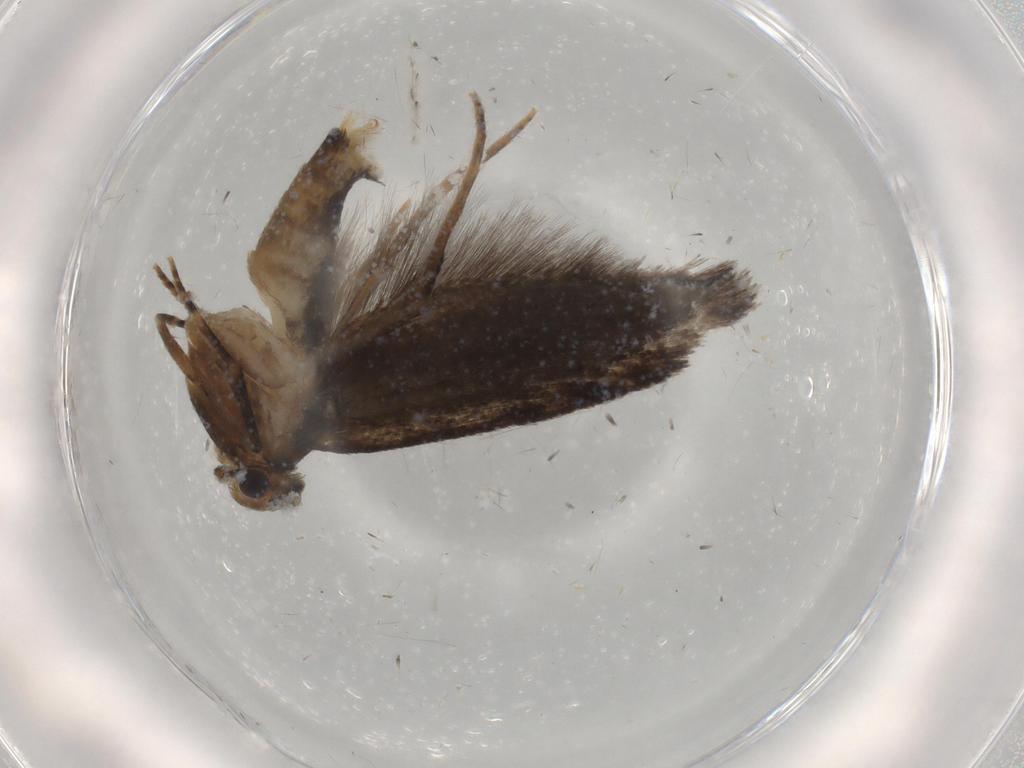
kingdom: Animalia
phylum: Arthropoda
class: Insecta
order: Lepidoptera
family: Tineidae
